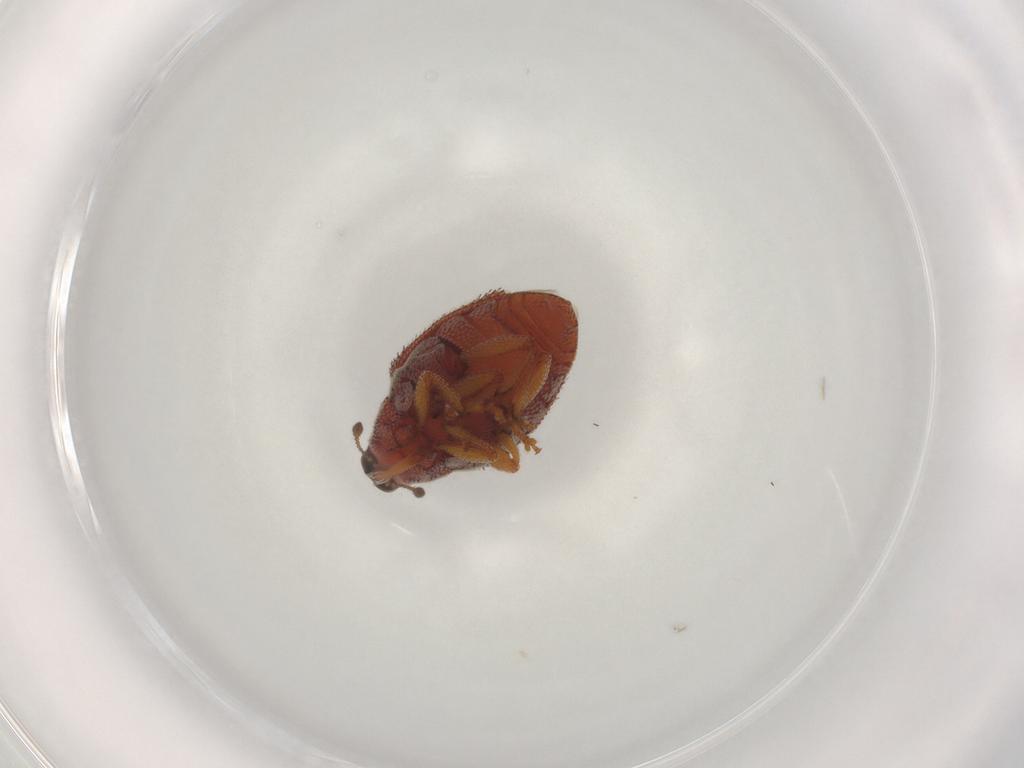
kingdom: Animalia
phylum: Arthropoda
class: Insecta
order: Coleoptera
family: Curculionidae
